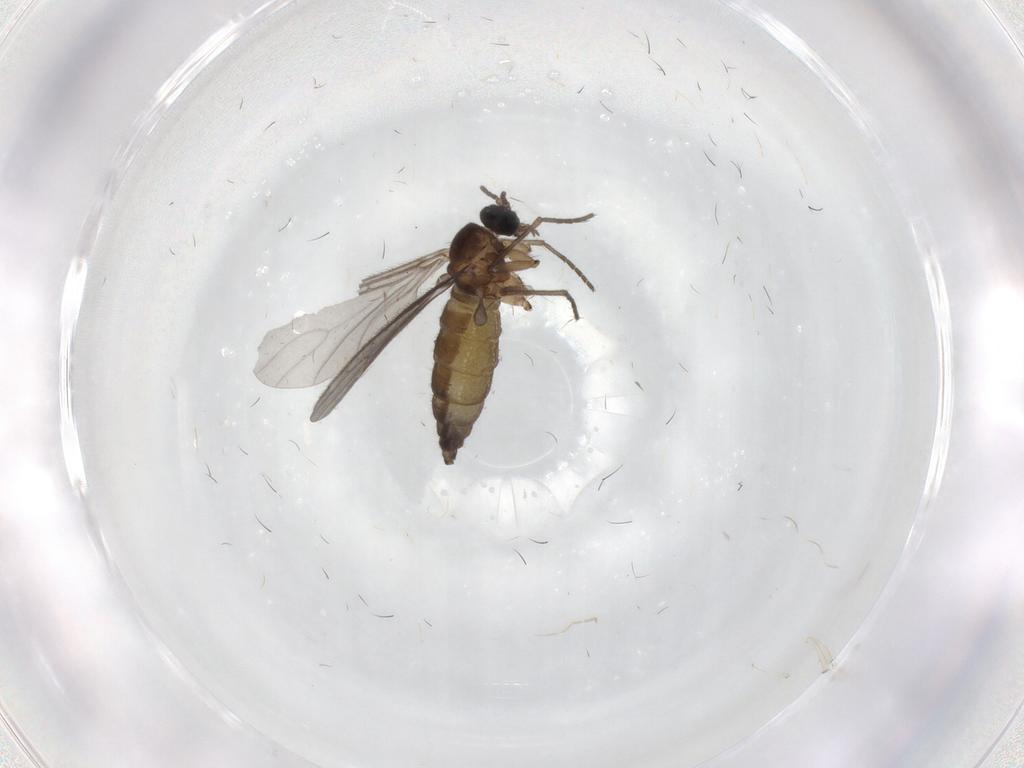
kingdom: Animalia
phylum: Arthropoda
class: Insecta
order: Diptera
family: Sciaridae
